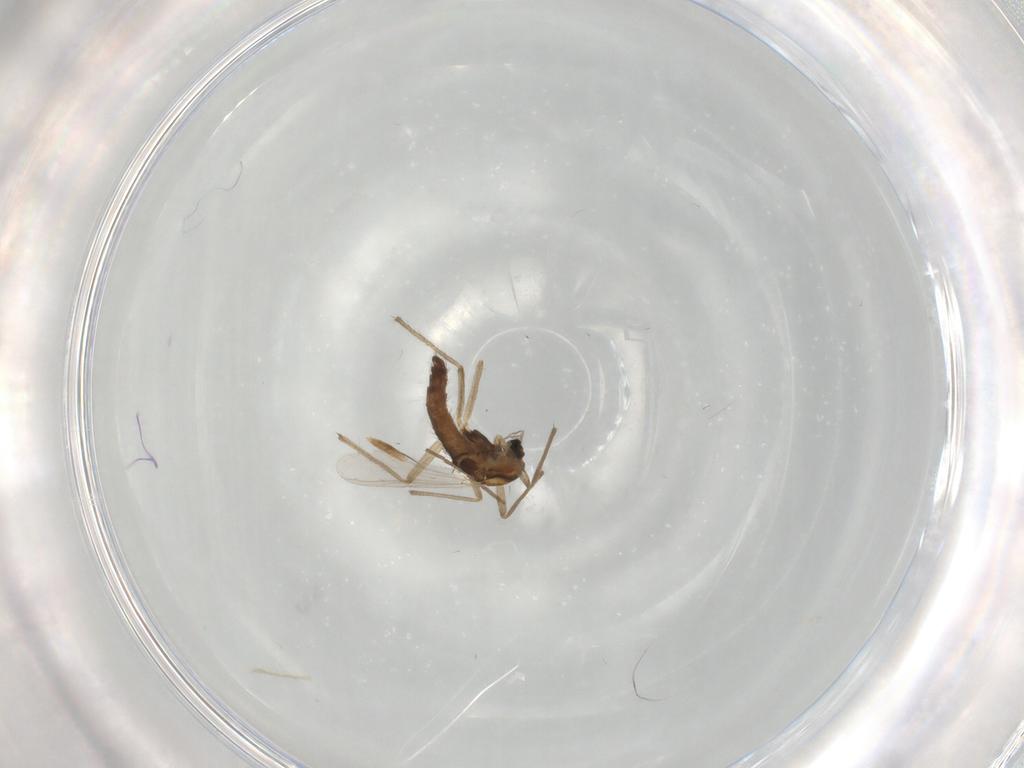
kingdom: Animalia
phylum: Arthropoda
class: Insecta
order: Diptera
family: Chironomidae
